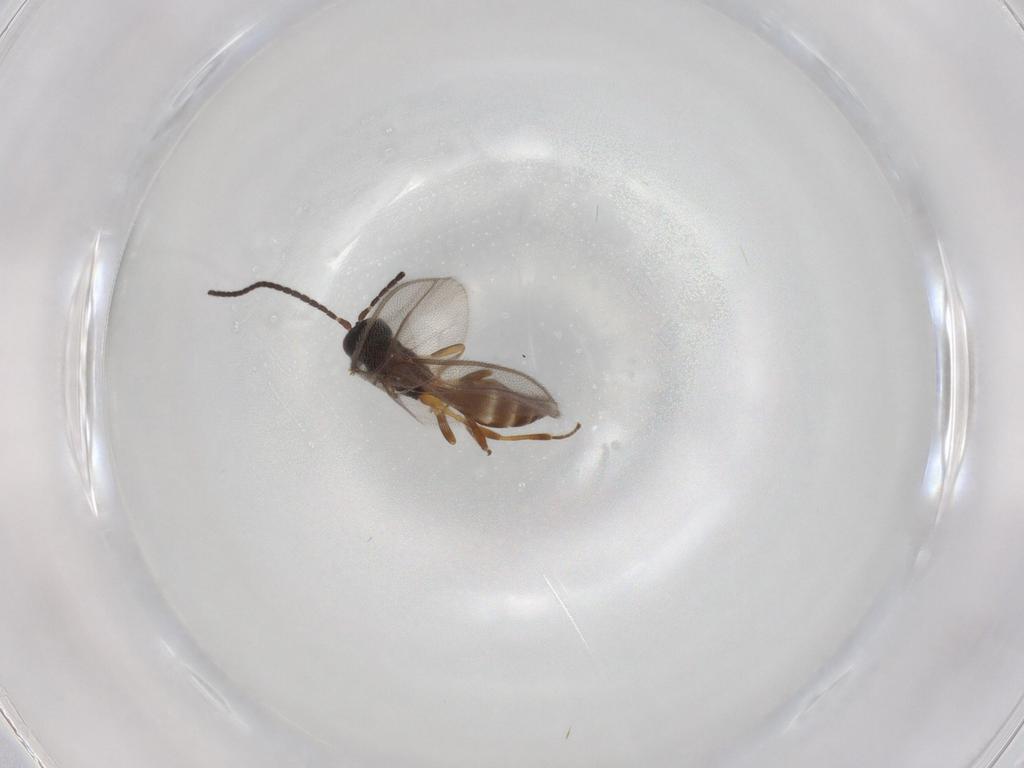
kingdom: Animalia
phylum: Arthropoda
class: Insecta
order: Hymenoptera
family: Braconidae
